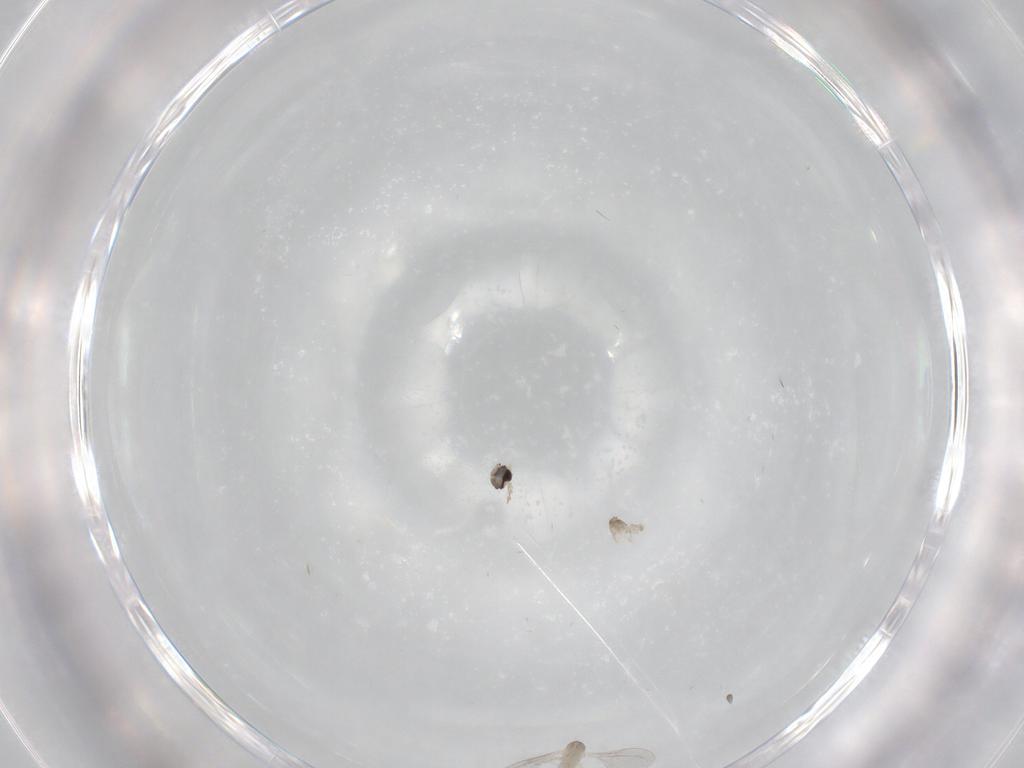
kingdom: Animalia
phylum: Arthropoda
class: Insecta
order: Diptera
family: Cecidomyiidae
